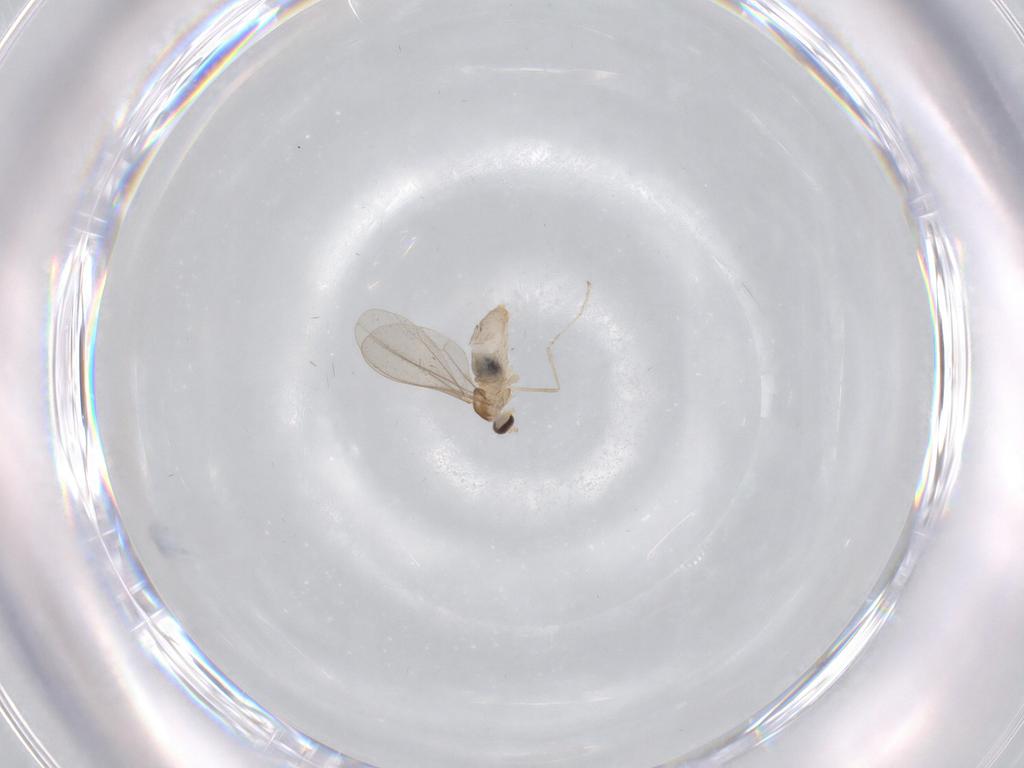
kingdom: Animalia
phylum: Arthropoda
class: Insecta
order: Diptera
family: Cecidomyiidae
